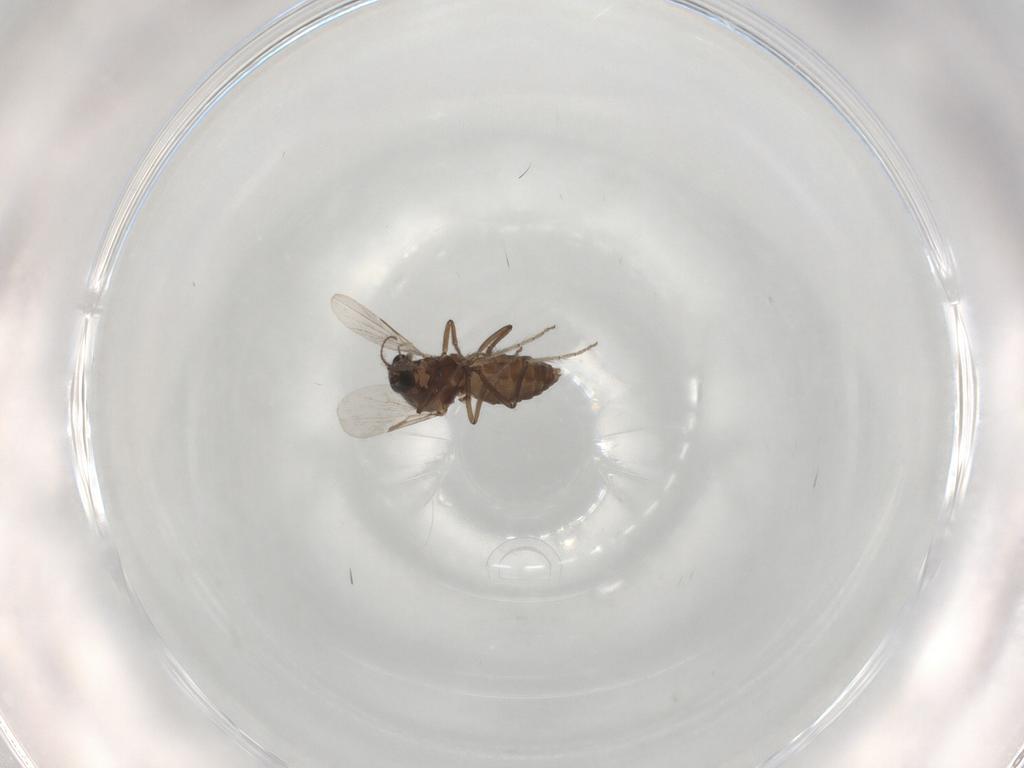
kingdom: Animalia
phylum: Arthropoda
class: Insecta
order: Diptera
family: Ceratopogonidae
